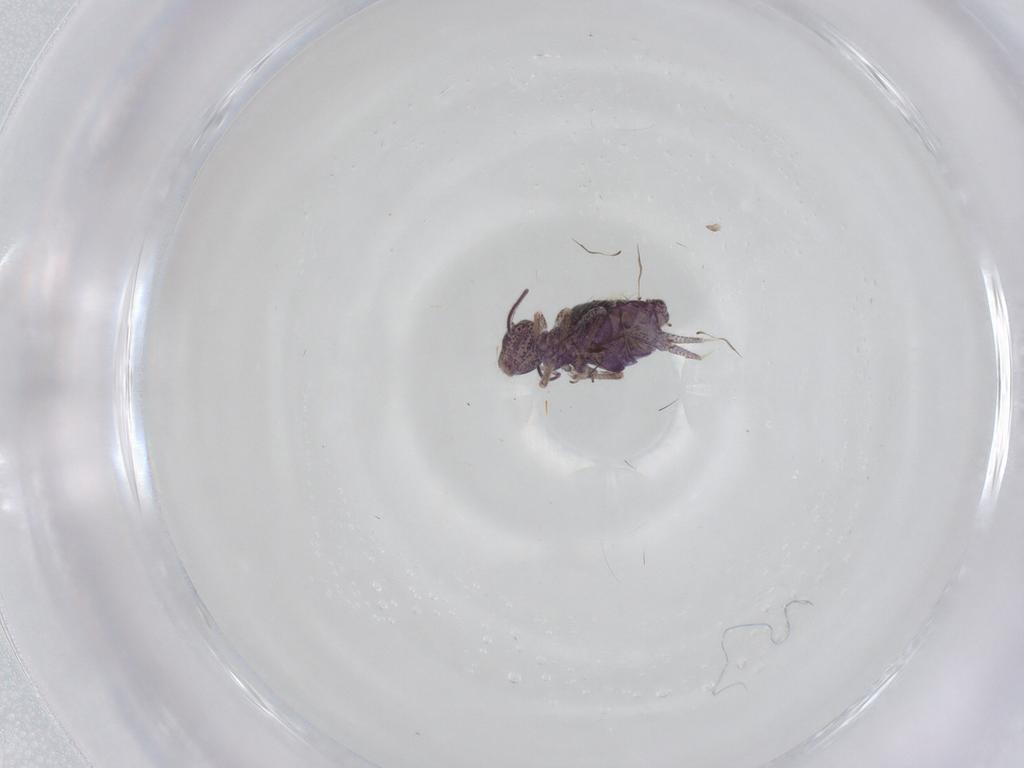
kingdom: Animalia
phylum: Arthropoda
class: Collembola
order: Symphypleona
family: Sminthuridae
